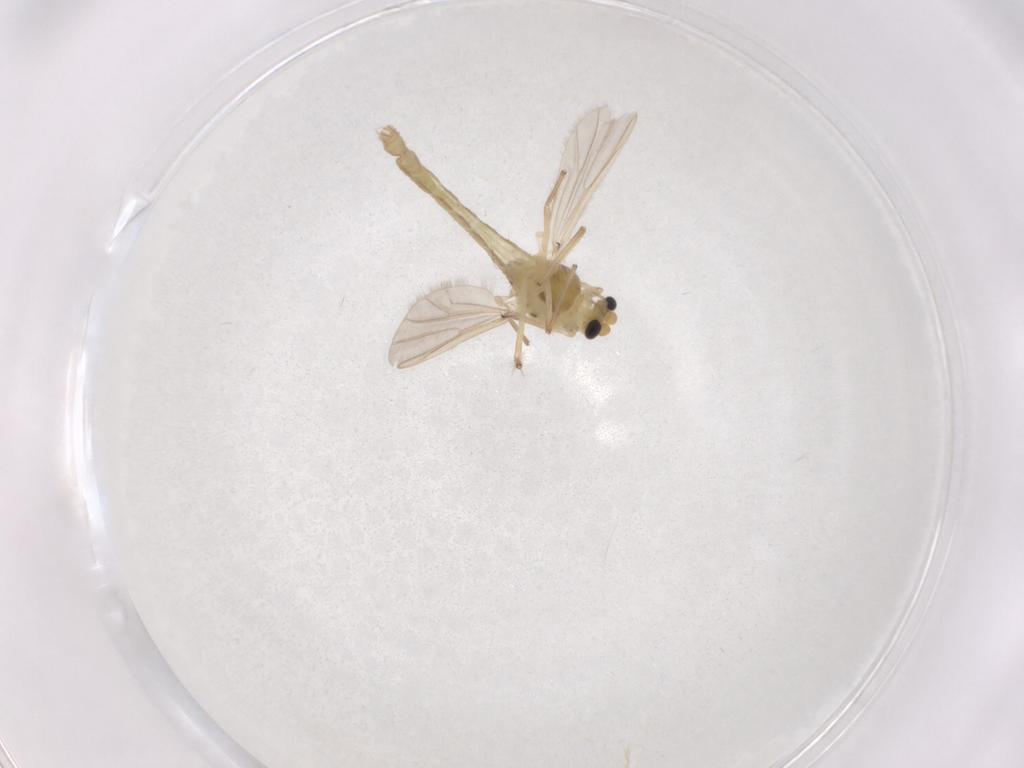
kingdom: Animalia
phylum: Arthropoda
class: Insecta
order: Diptera
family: Chironomidae
